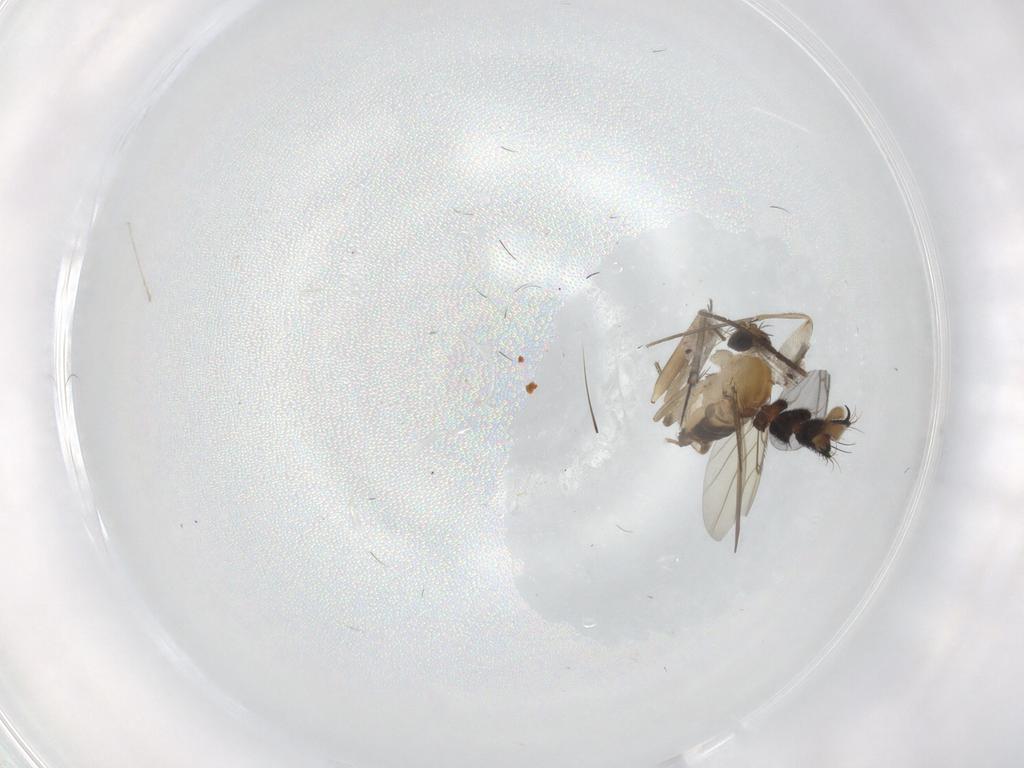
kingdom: Animalia
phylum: Arthropoda
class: Insecta
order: Diptera
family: Phoridae
